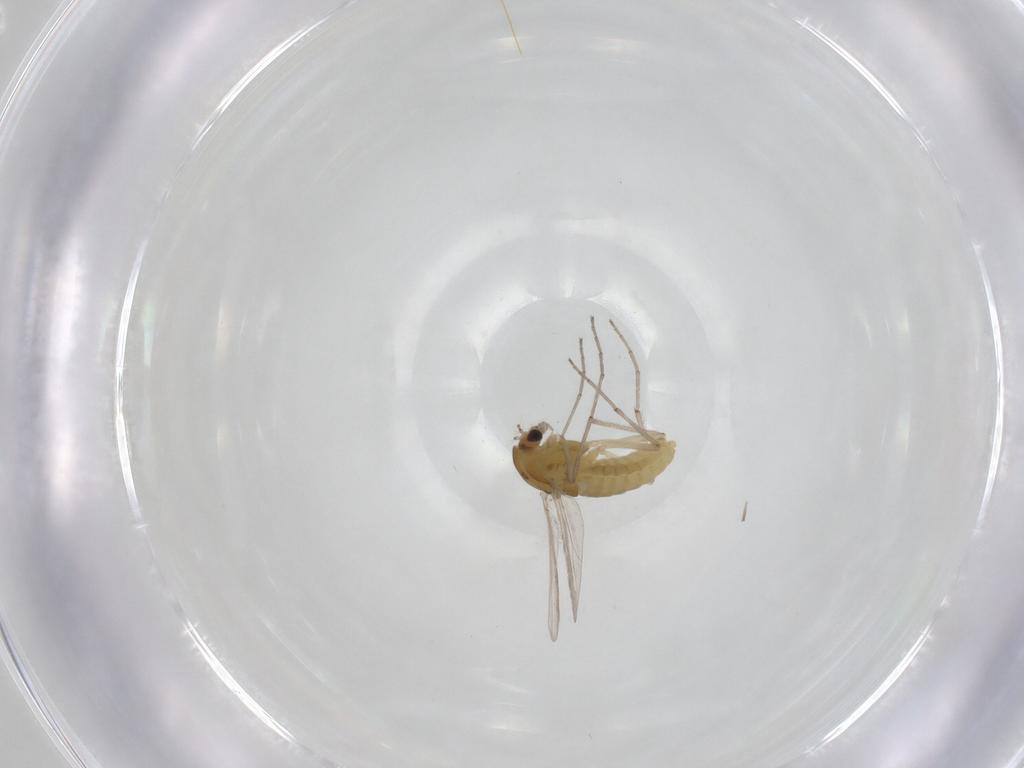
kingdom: Animalia
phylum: Arthropoda
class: Insecta
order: Diptera
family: Chironomidae
